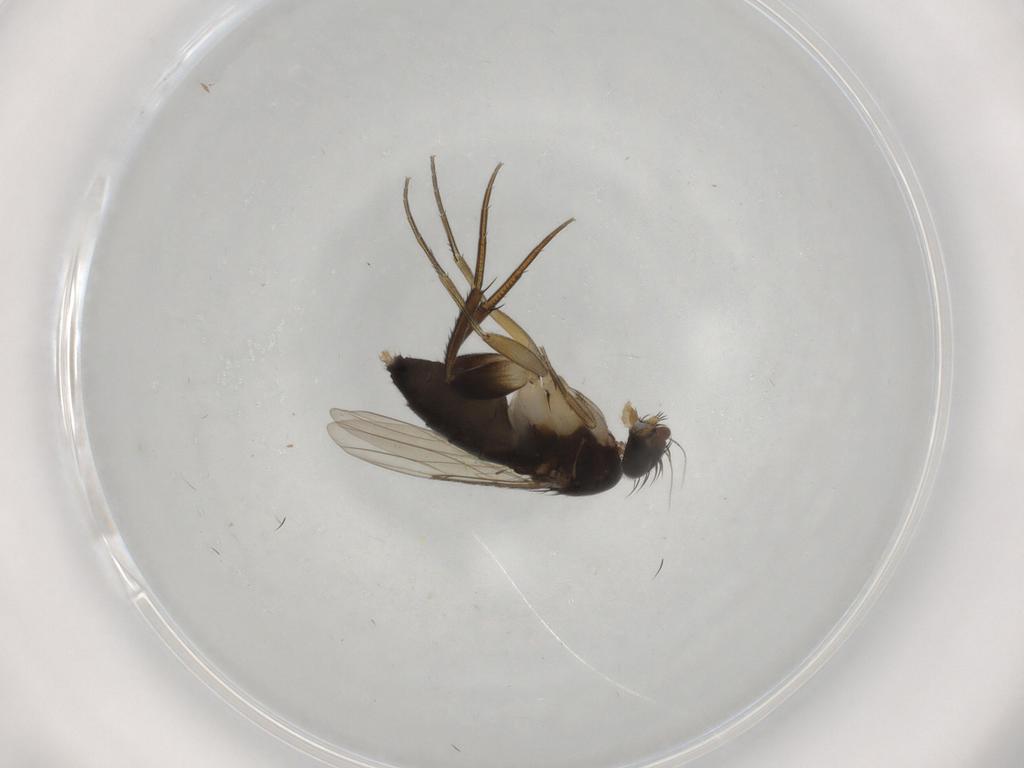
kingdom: Animalia
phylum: Arthropoda
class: Insecta
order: Diptera
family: Phoridae
